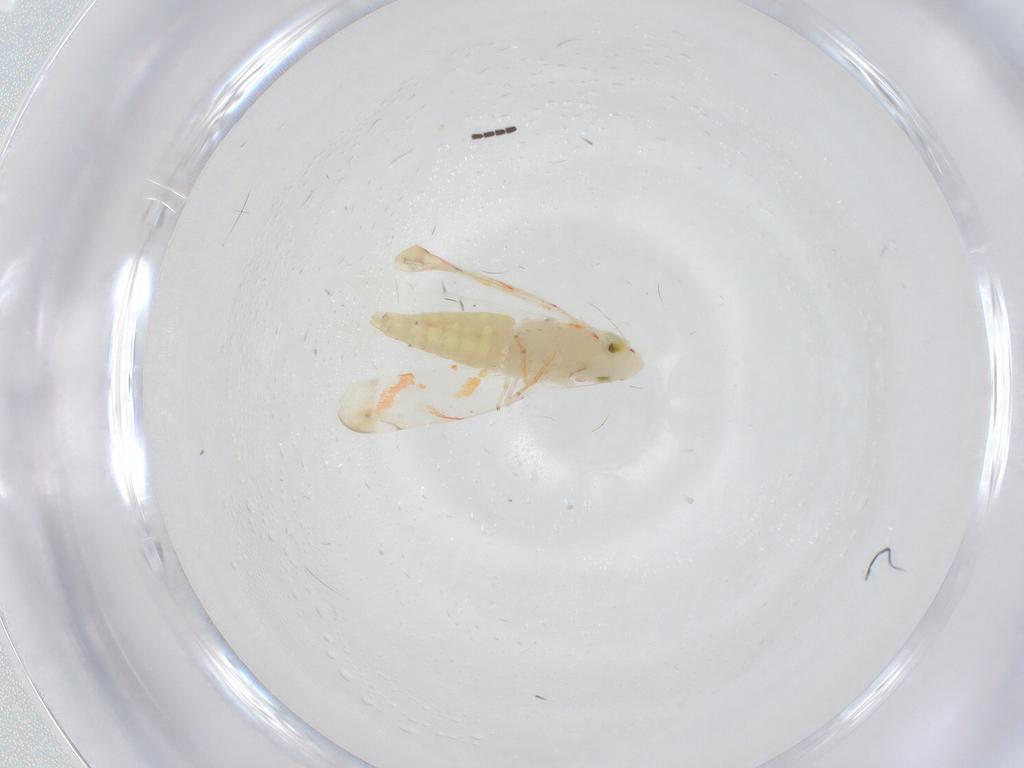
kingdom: Animalia
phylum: Arthropoda
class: Insecta
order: Hemiptera
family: Cicadellidae
